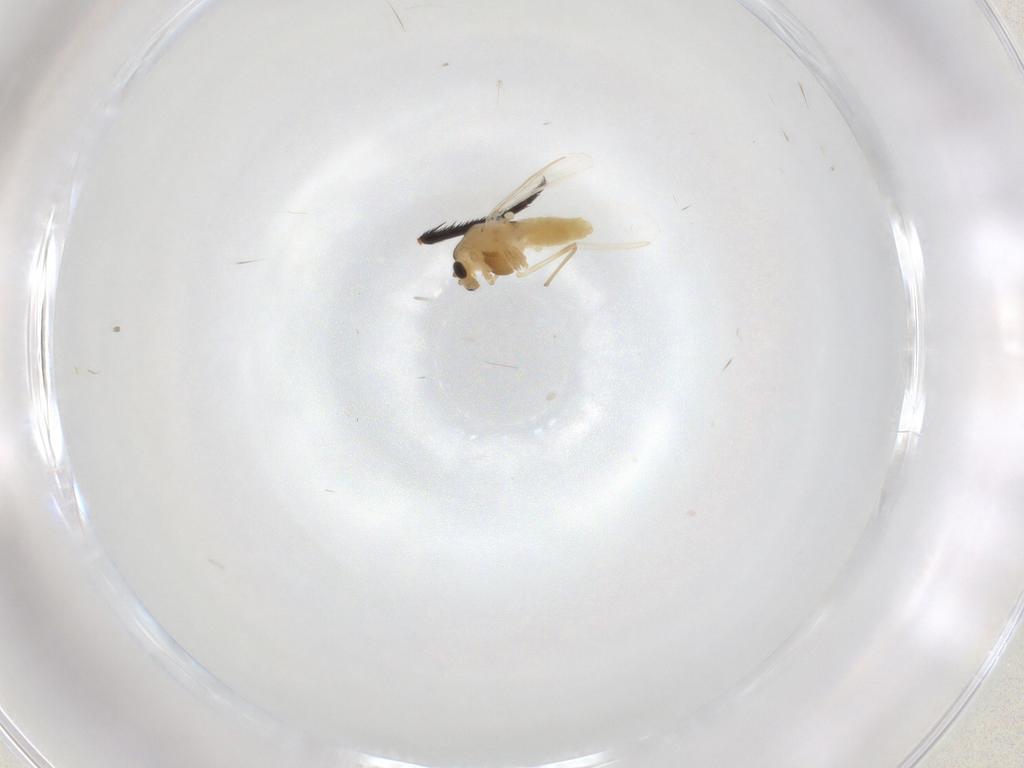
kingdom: Animalia
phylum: Arthropoda
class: Insecta
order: Diptera
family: Chironomidae
